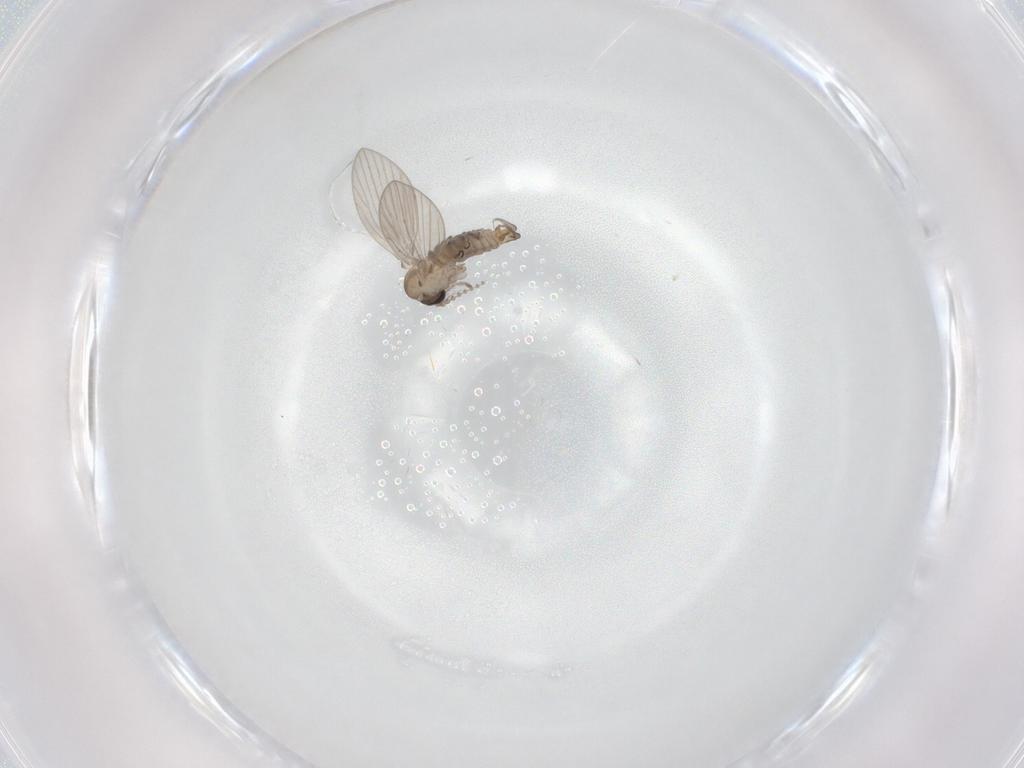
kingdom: Animalia
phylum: Arthropoda
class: Insecta
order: Diptera
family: Psychodidae
